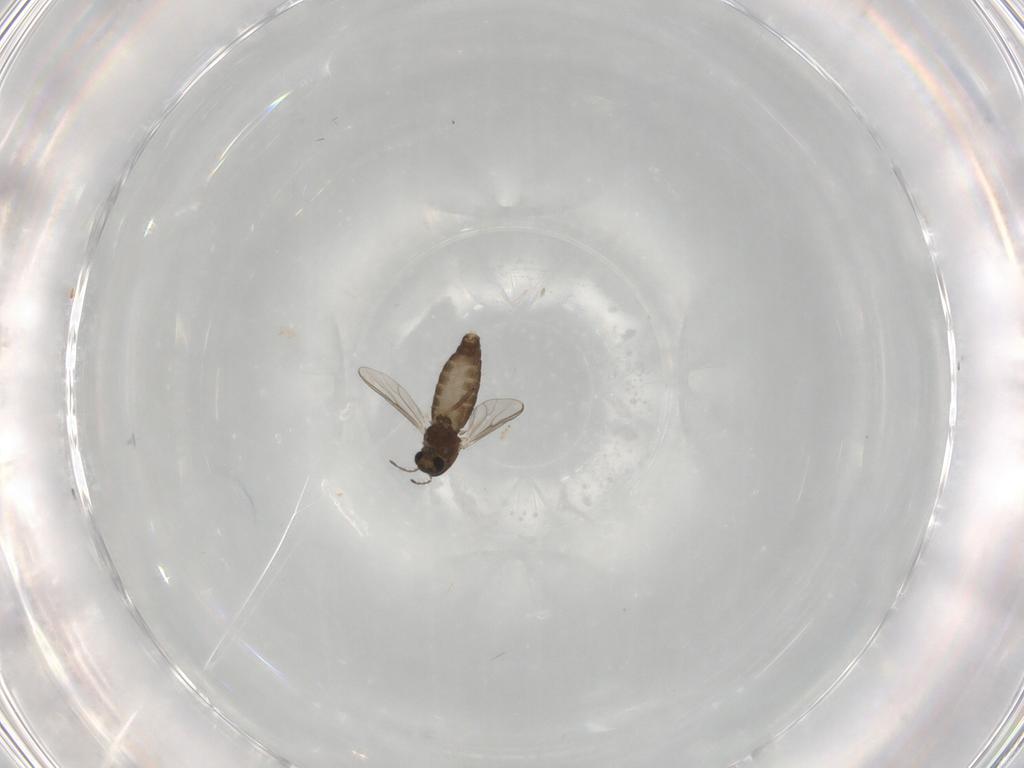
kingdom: Animalia
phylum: Arthropoda
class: Insecta
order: Diptera
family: Chironomidae
